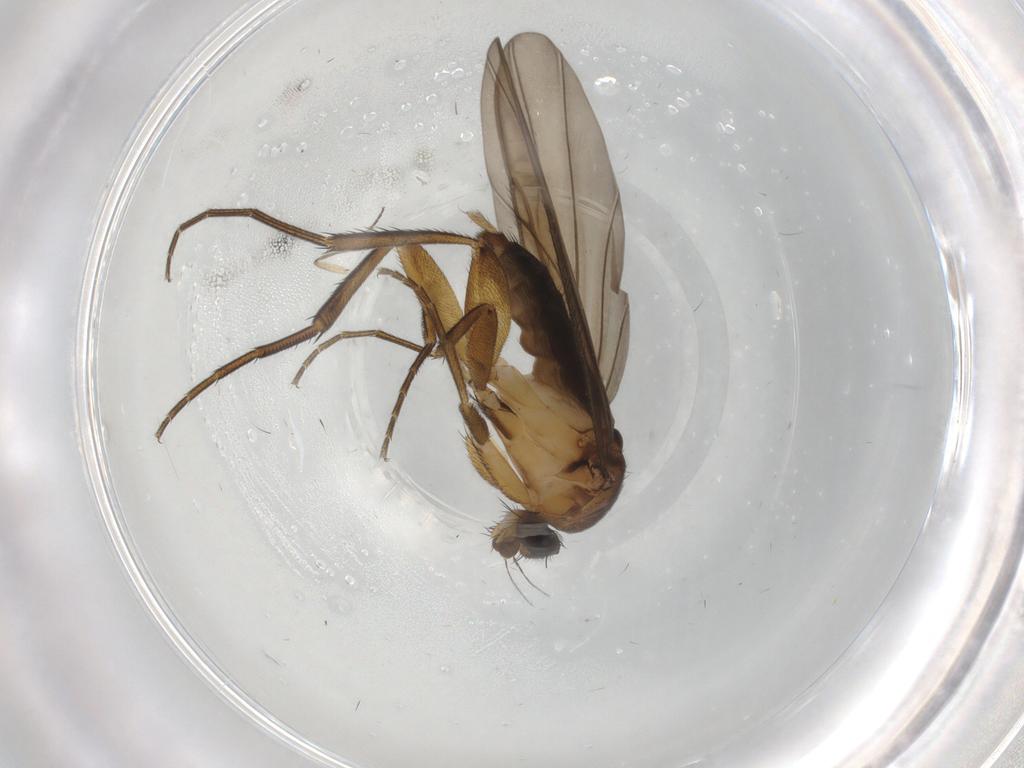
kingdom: Animalia
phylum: Arthropoda
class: Insecta
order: Diptera
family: Phoridae
